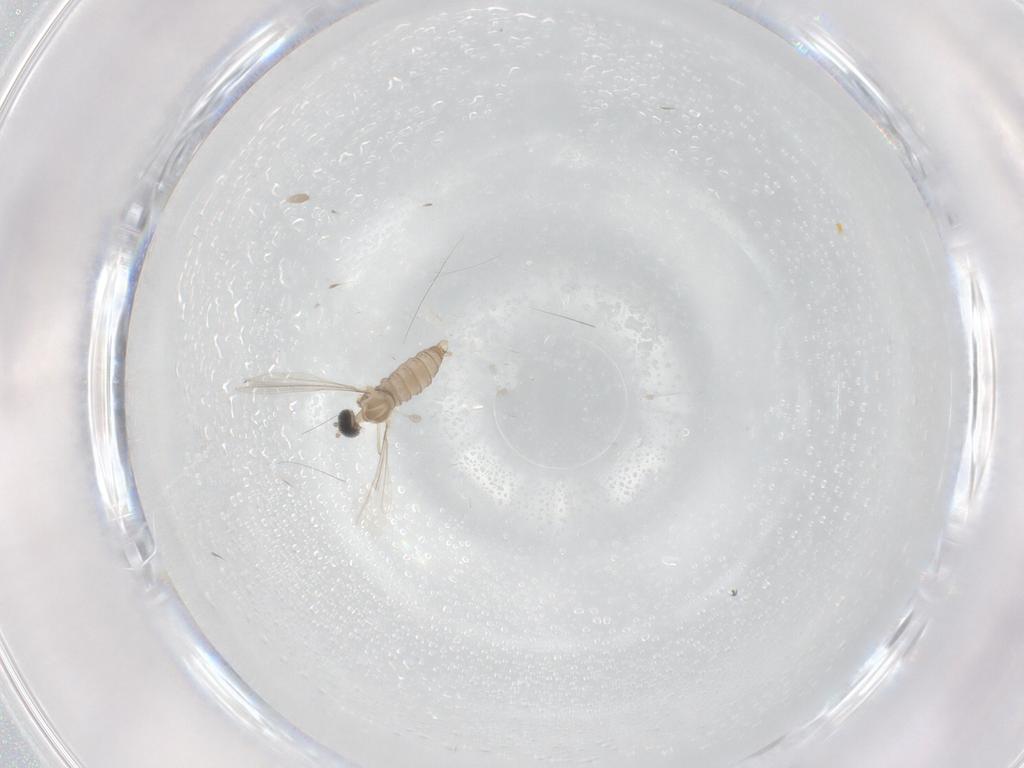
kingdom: Animalia
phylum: Arthropoda
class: Insecta
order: Diptera
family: Cecidomyiidae
